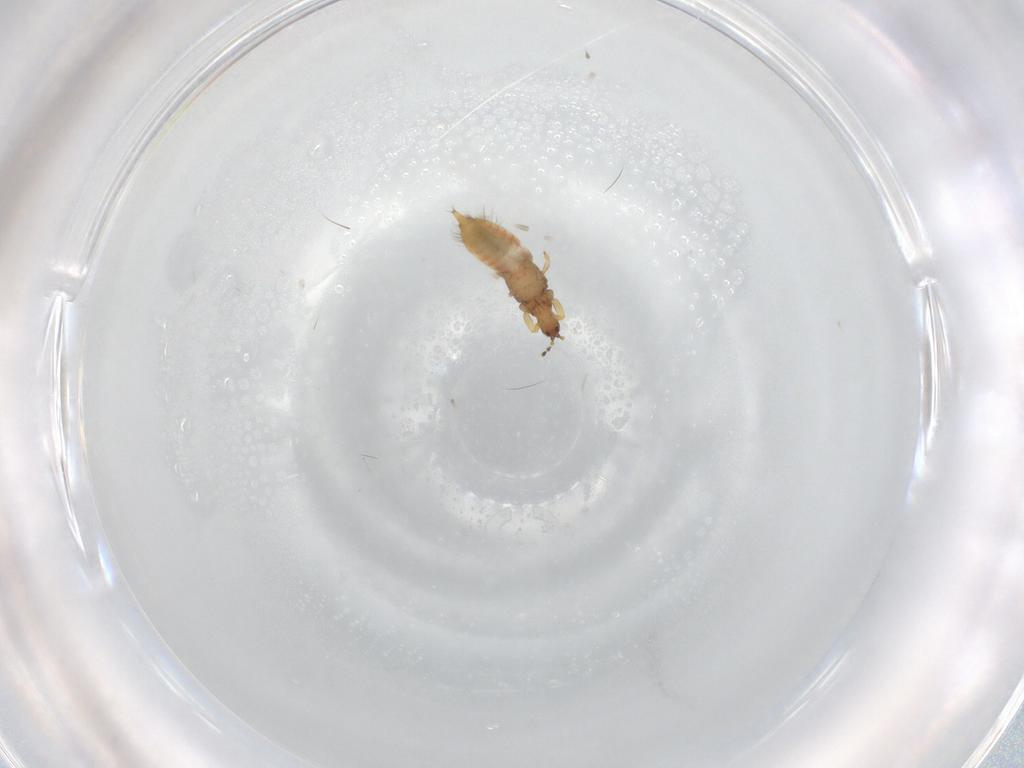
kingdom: Animalia
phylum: Arthropoda
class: Insecta
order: Thysanoptera
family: Phlaeothripidae
